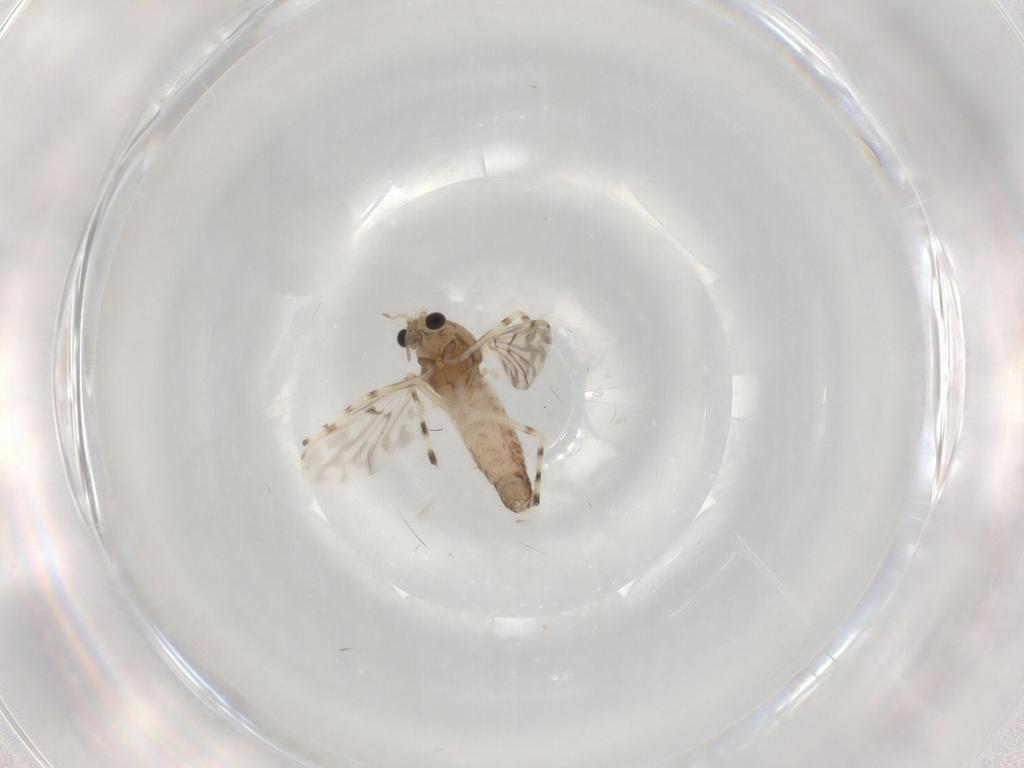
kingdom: Animalia
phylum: Arthropoda
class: Insecta
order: Diptera
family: Chironomidae
